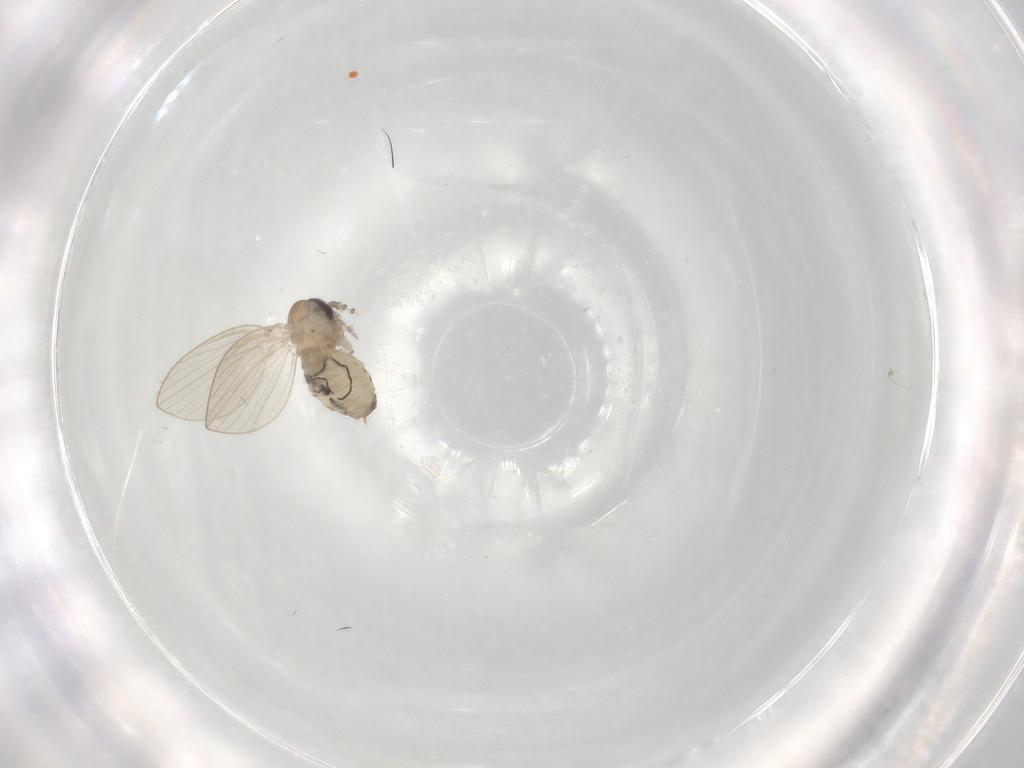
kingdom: Animalia
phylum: Arthropoda
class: Insecta
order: Diptera
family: Psychodidae
